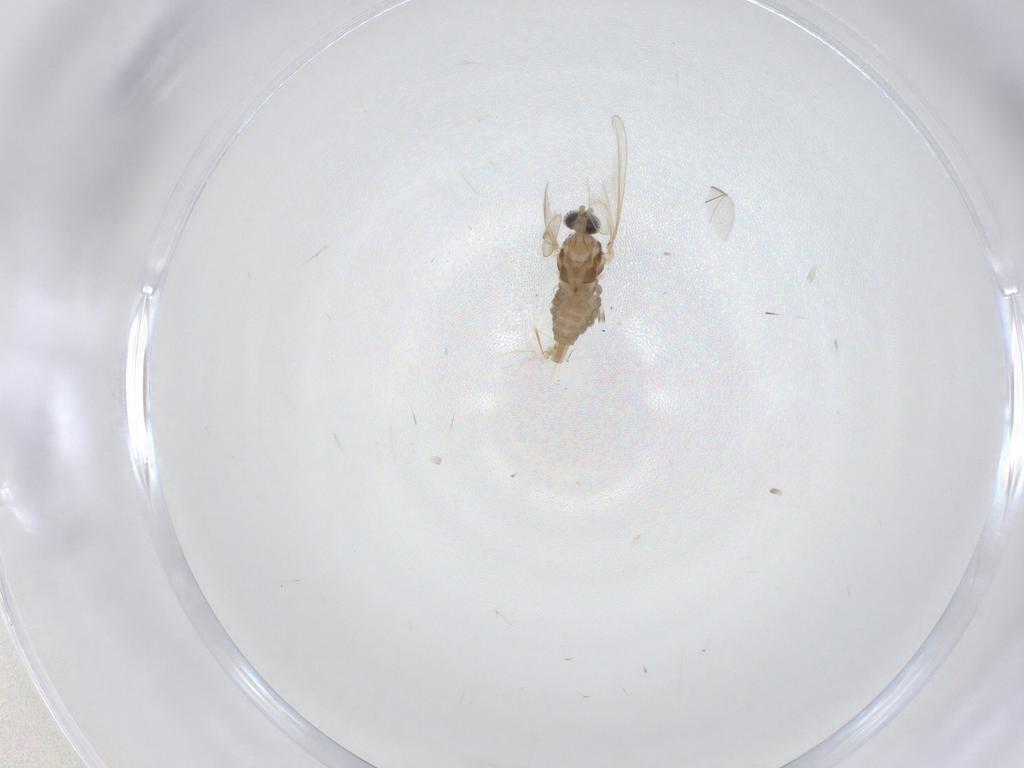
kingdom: Animalia
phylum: Arthropoda
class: Insecta
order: Diptera
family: Cecidomyiidae
